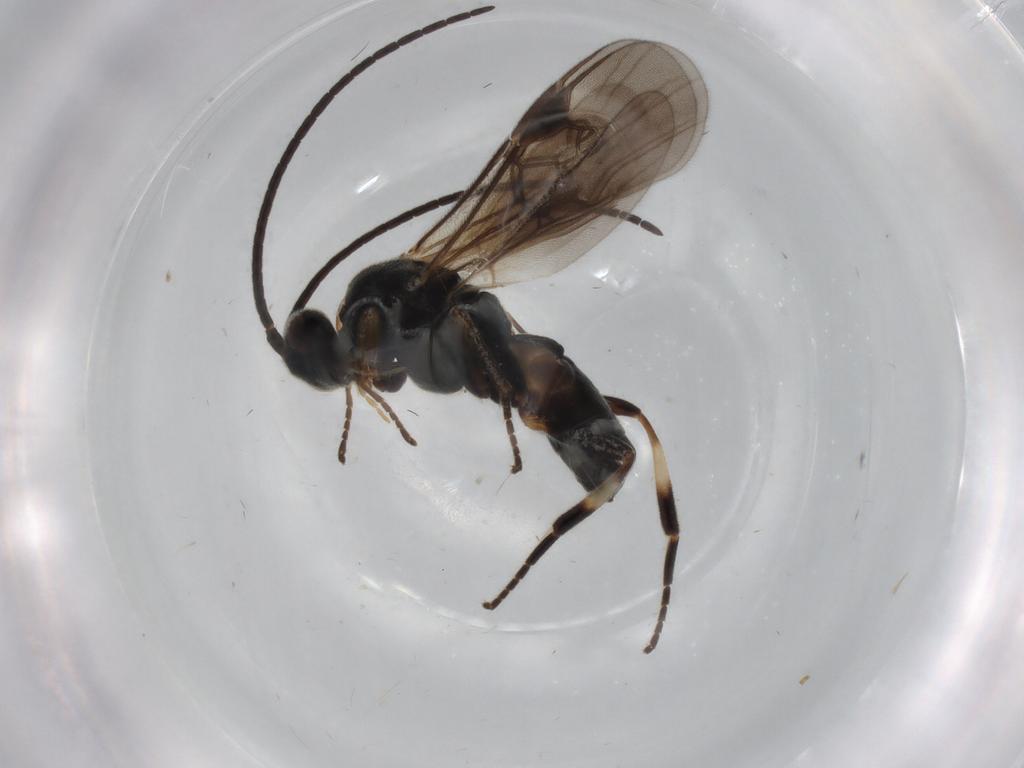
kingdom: Animalia
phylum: Arthropoda
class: Insecta
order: Hymenoptera
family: Braconidae
